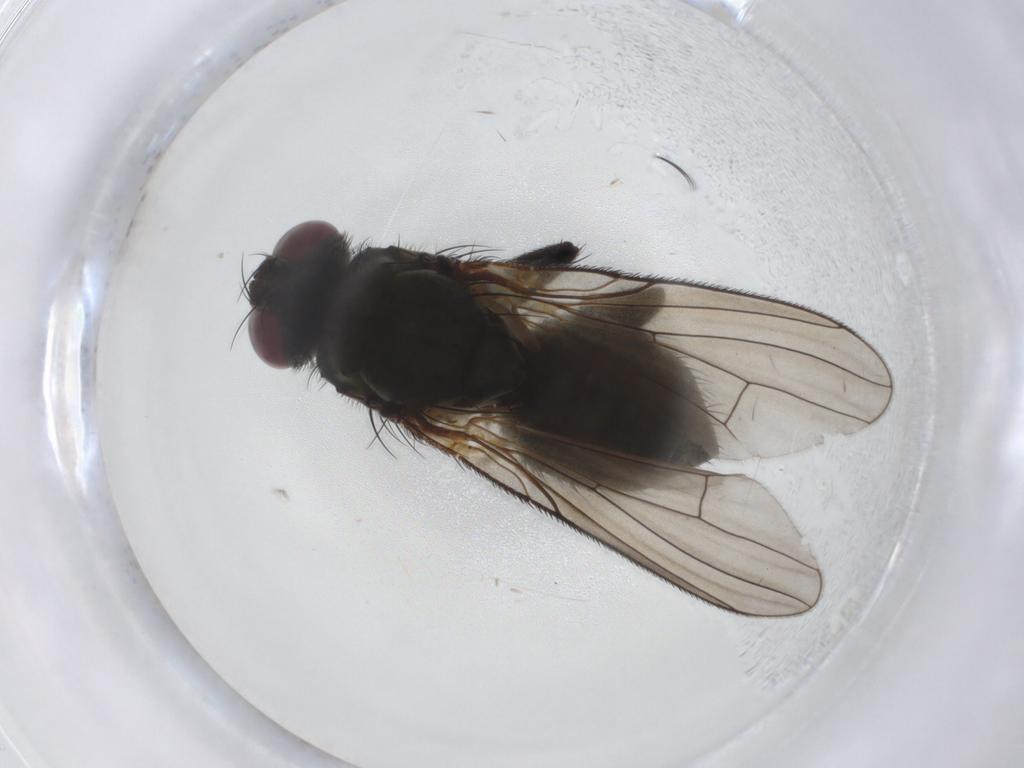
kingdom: Animalia
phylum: Arthropoda
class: Insecta
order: Diptera
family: Muscidae
